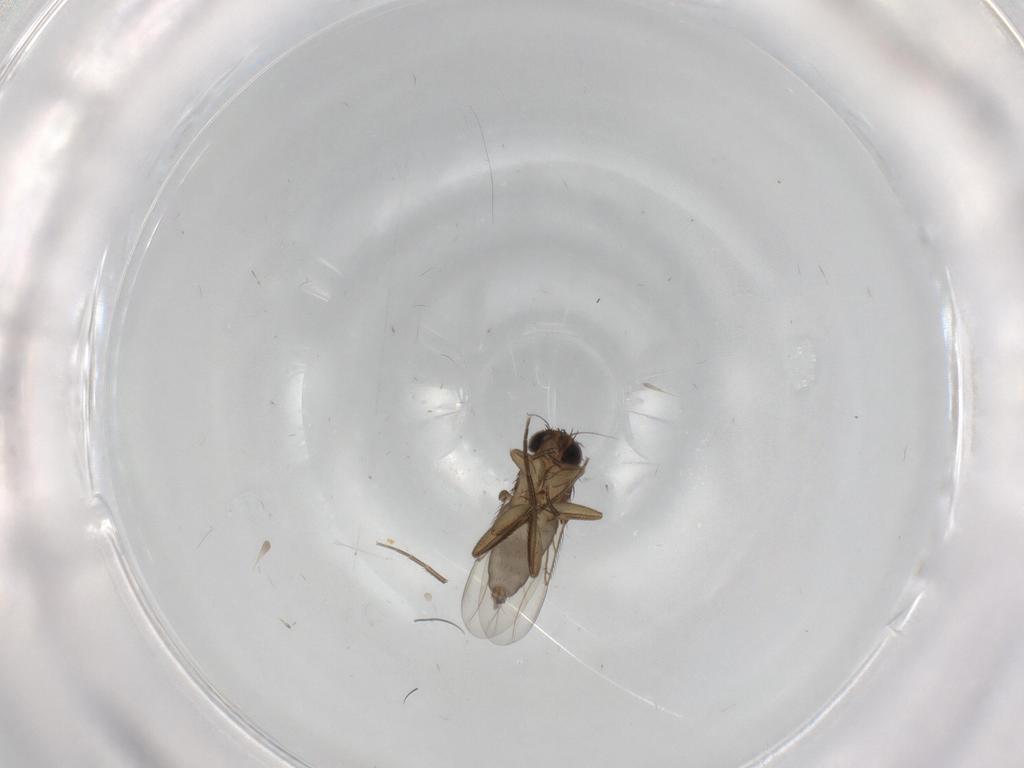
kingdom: Animalia
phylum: Arthropoda
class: Insecta
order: Diptera
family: Phoridae
